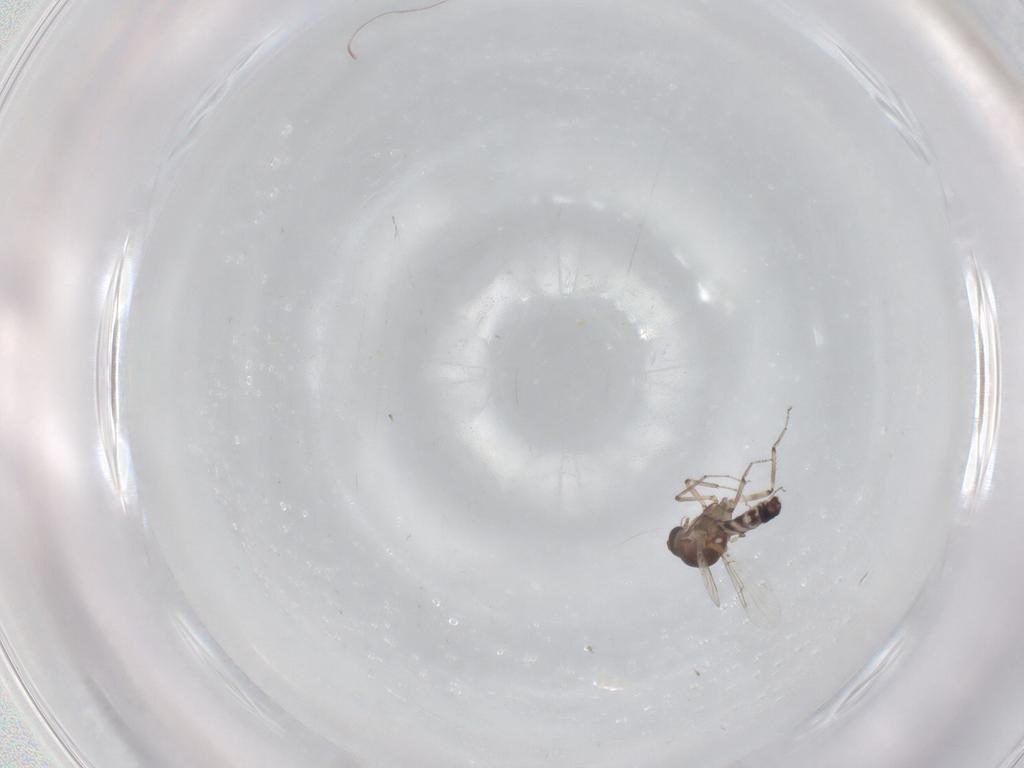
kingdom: Animalia
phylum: Arthropoda
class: Insecta
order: Diptera
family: Ceratopogonidae
